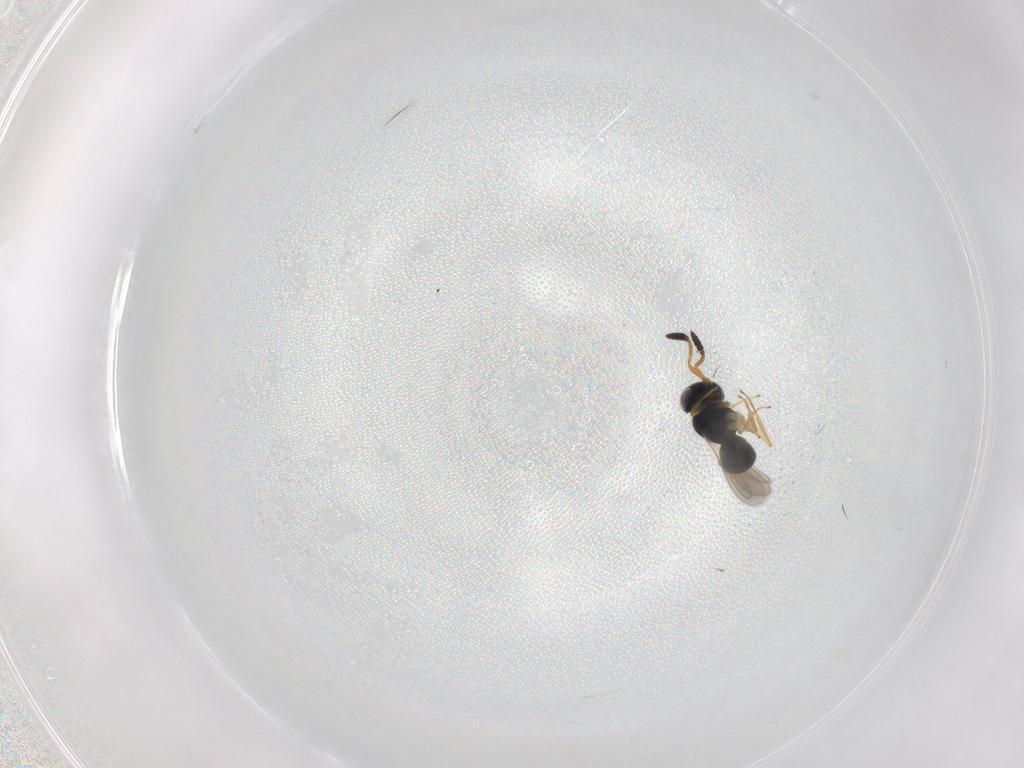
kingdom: Animalia
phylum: Arthropoda
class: Insecta
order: Hymenoptera
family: Scelionidae
